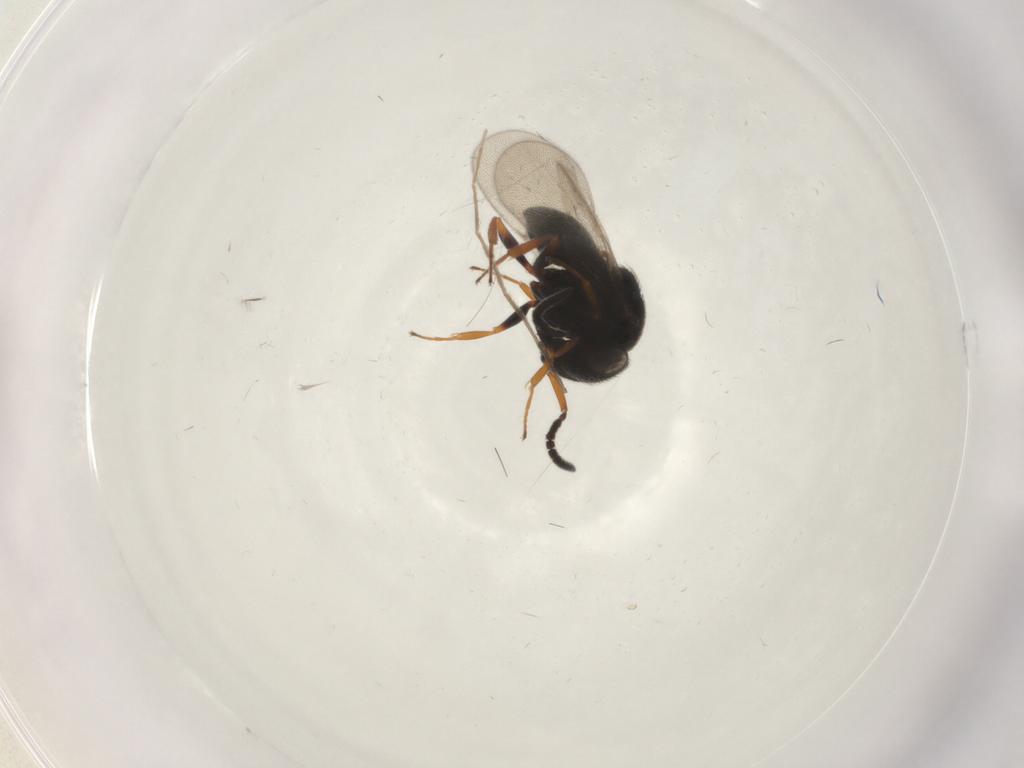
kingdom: Animalia
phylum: Arthropoda
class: Insecta
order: Hymenoptera
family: Scelionidae
